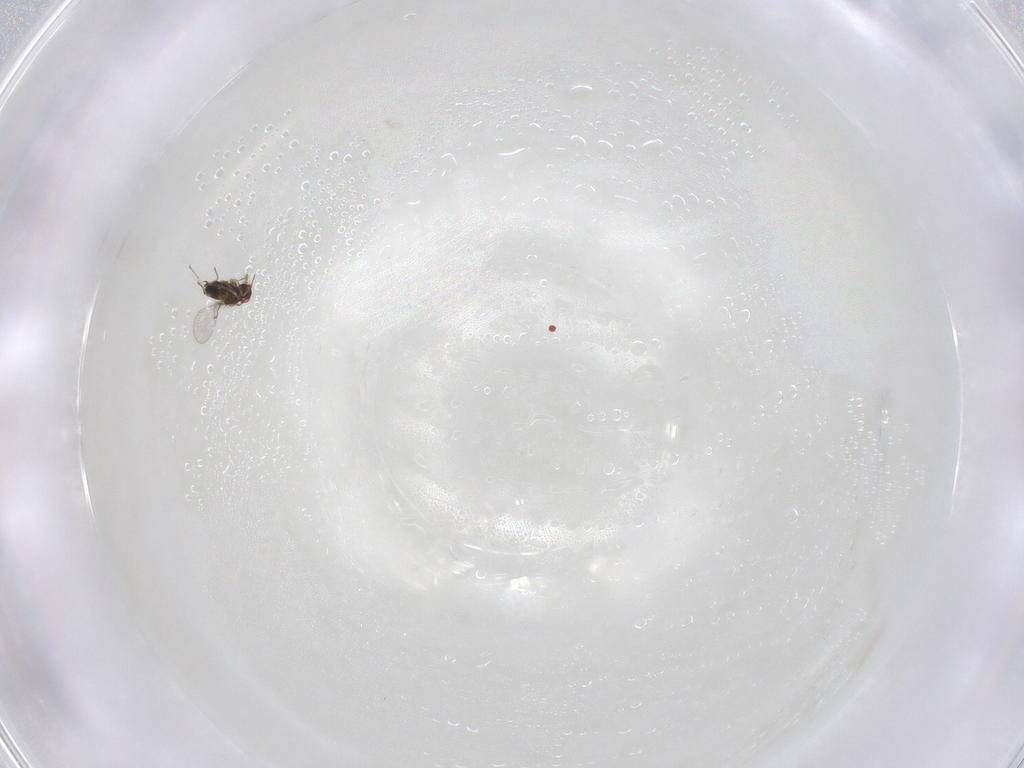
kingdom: Animalia
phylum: Arthropoda
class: Insecta
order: Hymenoptera
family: Trichogrammatidae
